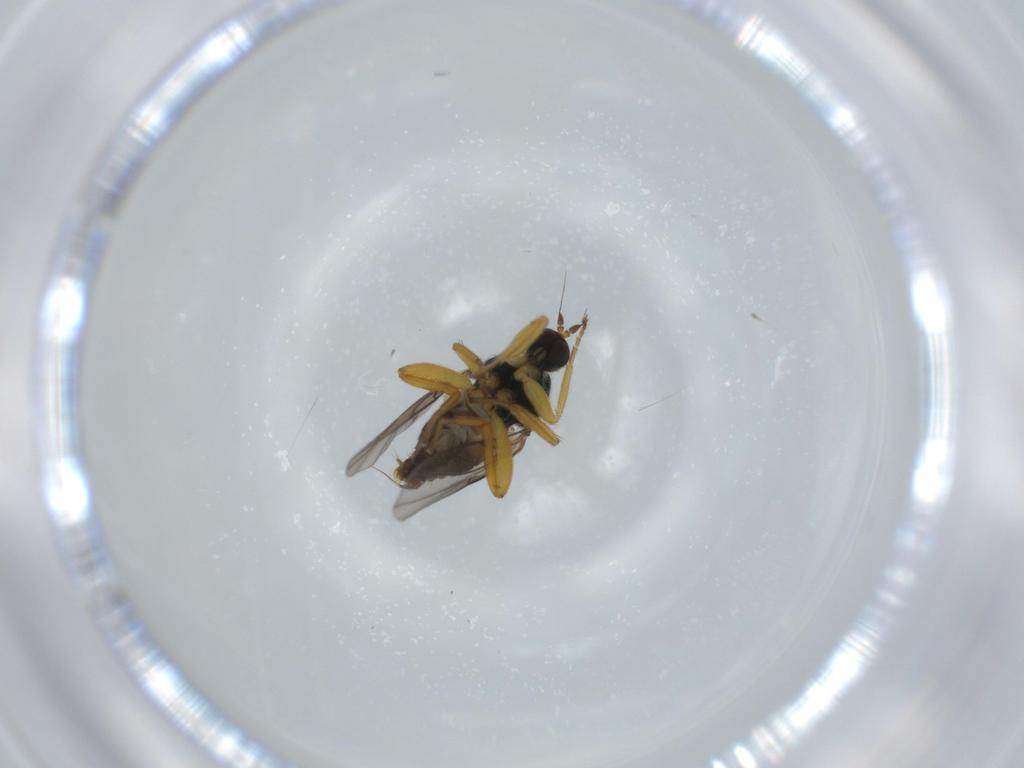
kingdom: Animalia
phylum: Arthropoda
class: Insecta
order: Diptera
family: Hybotidae
